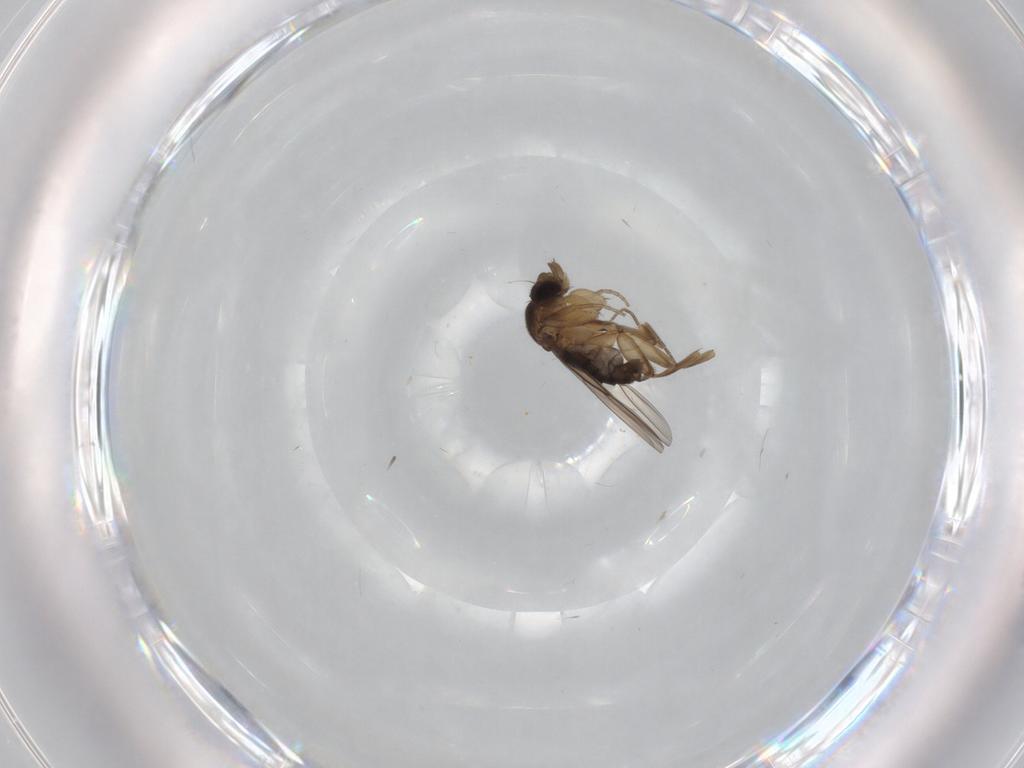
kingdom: Animalia
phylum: Arthropoda
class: Insecta
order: Diptera
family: Phoridae
